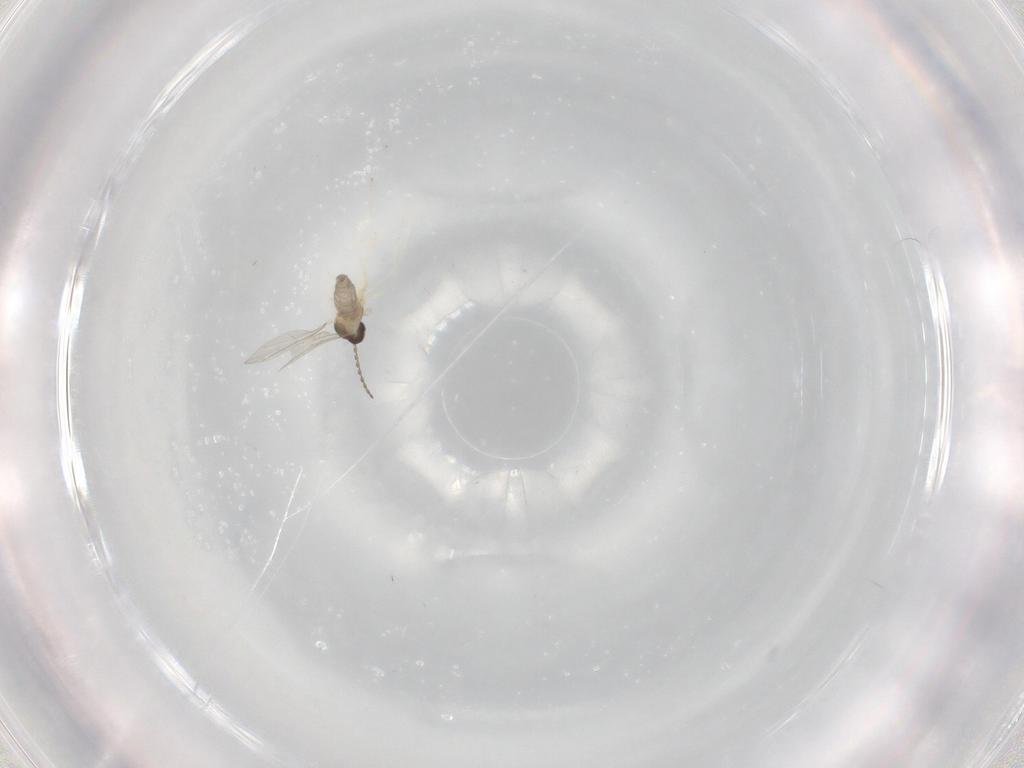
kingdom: Animalia
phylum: Arthropoda
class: Insecta
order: Diptera
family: Cecidomyiidae
